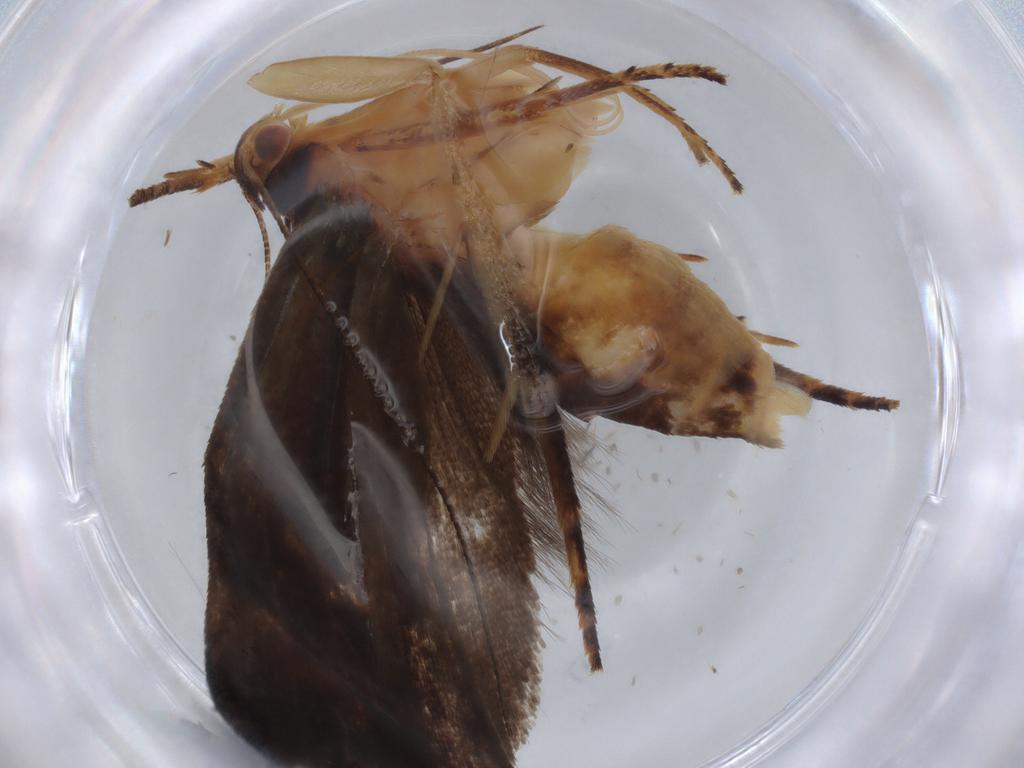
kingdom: Animalia
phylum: Arthropoda
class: Insecta
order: Lepidoptera
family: Gelechiidae
